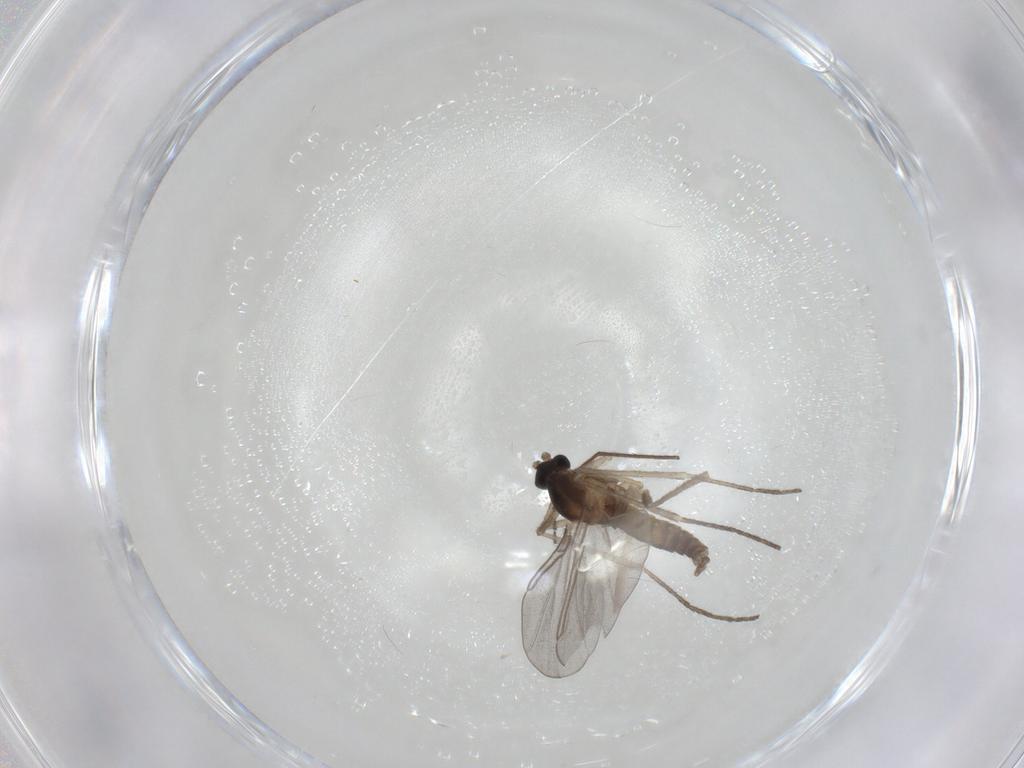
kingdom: Animalia
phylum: Arthropoda
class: Insecta
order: Diptera
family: Cecidomyiidae
